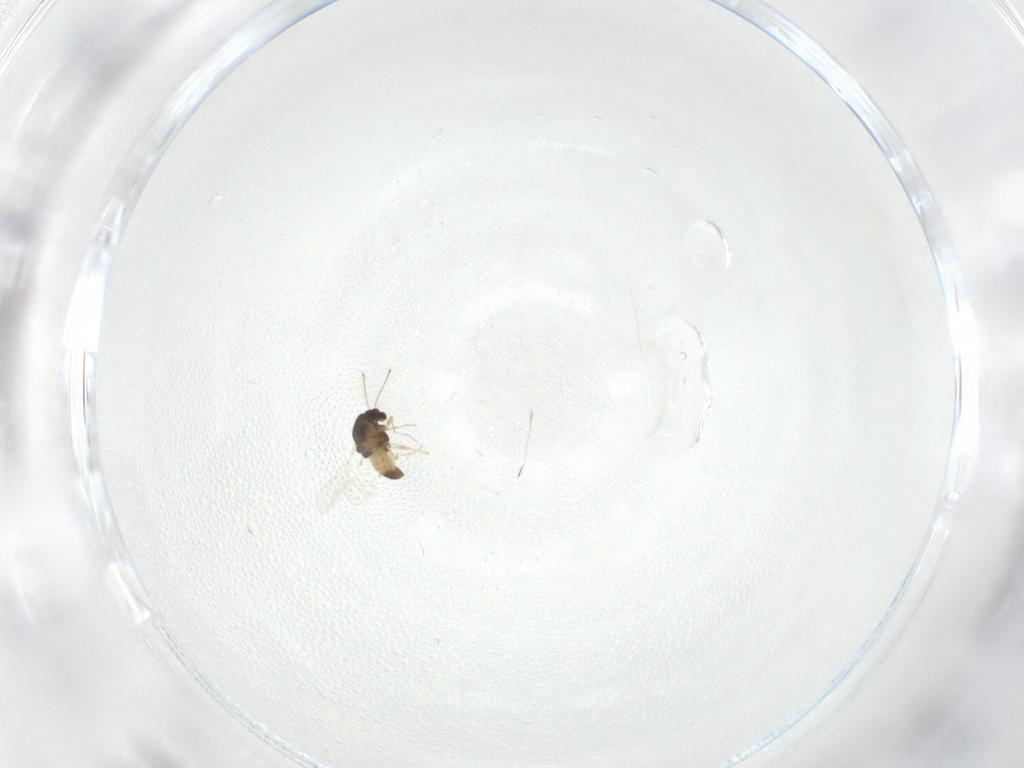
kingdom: Animalia
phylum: Arthropoda
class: Insecta
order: Diptera
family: Chironomidae
